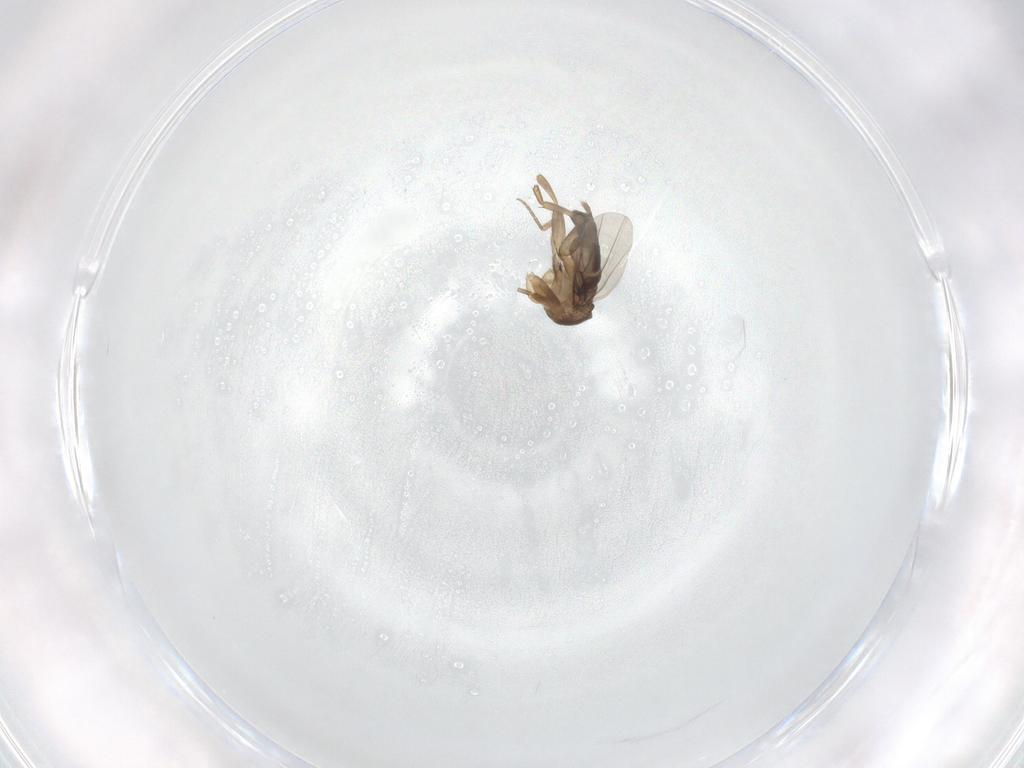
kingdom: Animalia
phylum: Arthropoda
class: Insecta
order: Diptera
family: Phoridae
